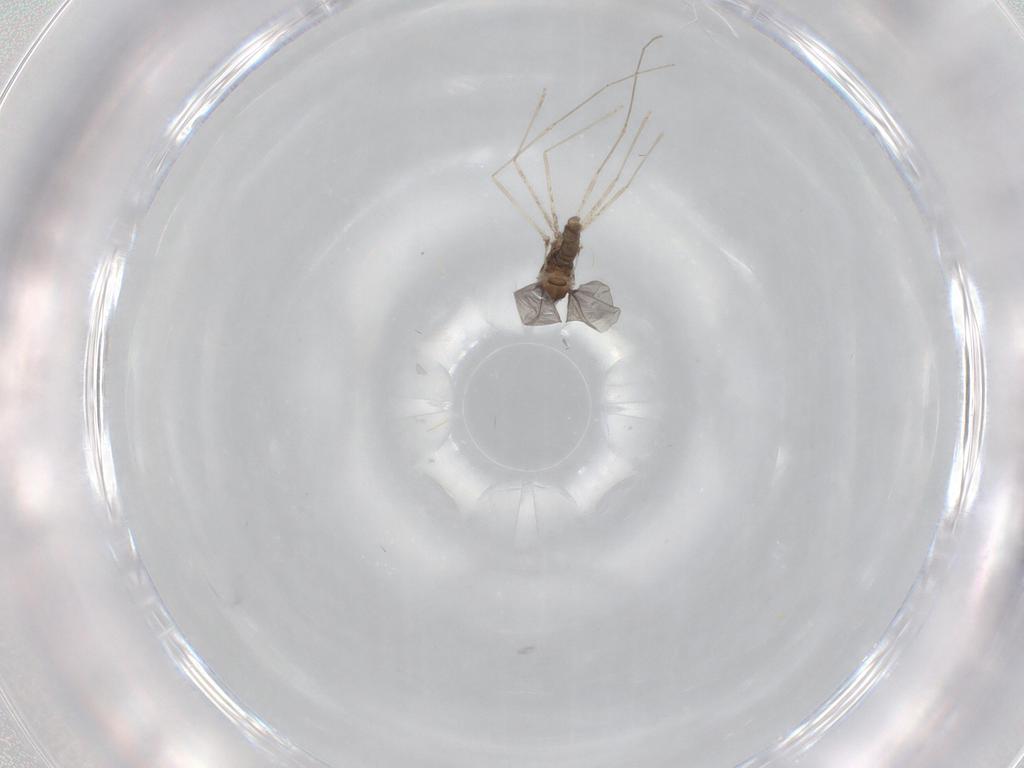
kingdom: Animalia
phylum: Arthropoda
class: Insecta
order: Diptera
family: Cecidomyiidae
